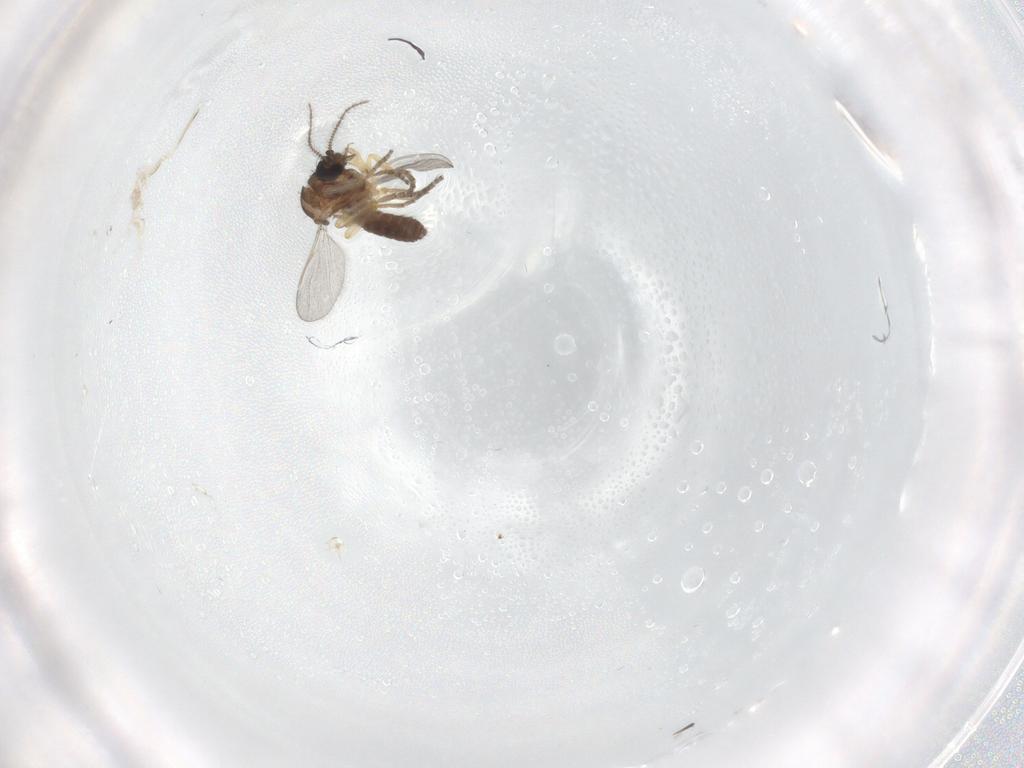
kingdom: Animalia
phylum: Arthropoda
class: Insecta
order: Diptera
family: Ceratopogonidae
